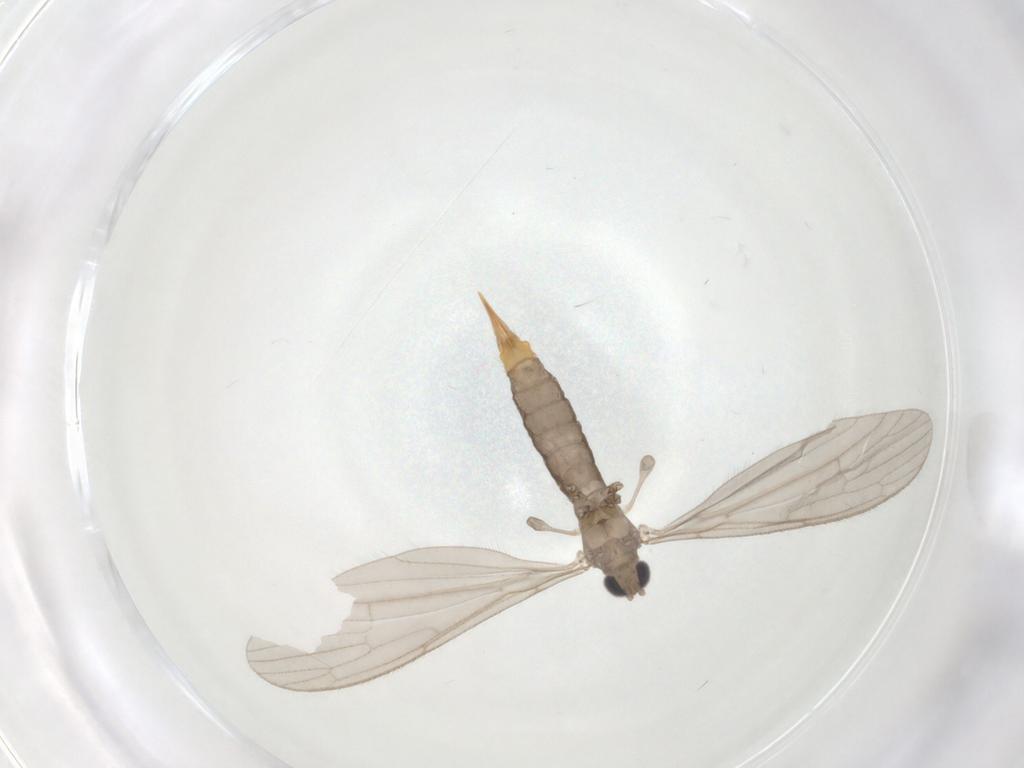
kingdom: Animalia
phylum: Arthropoda
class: Insecta
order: Diptera
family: Limoniidae
